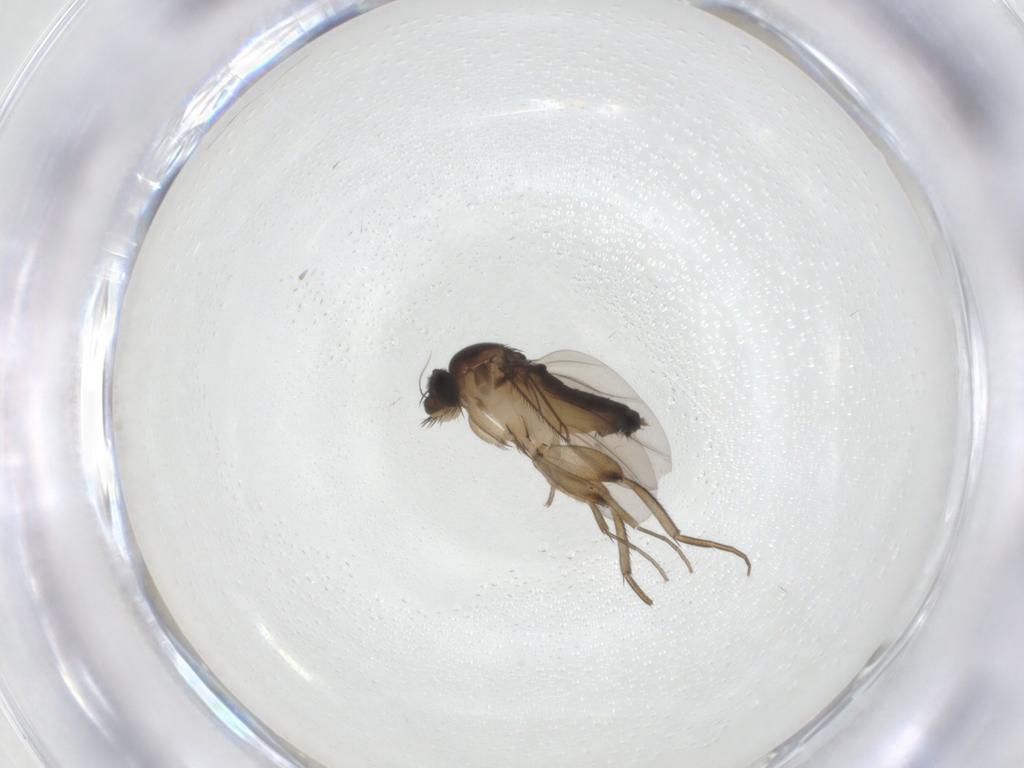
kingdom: Animalia
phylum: Arthropoda
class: Insecta
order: Diptera
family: Phoridae
